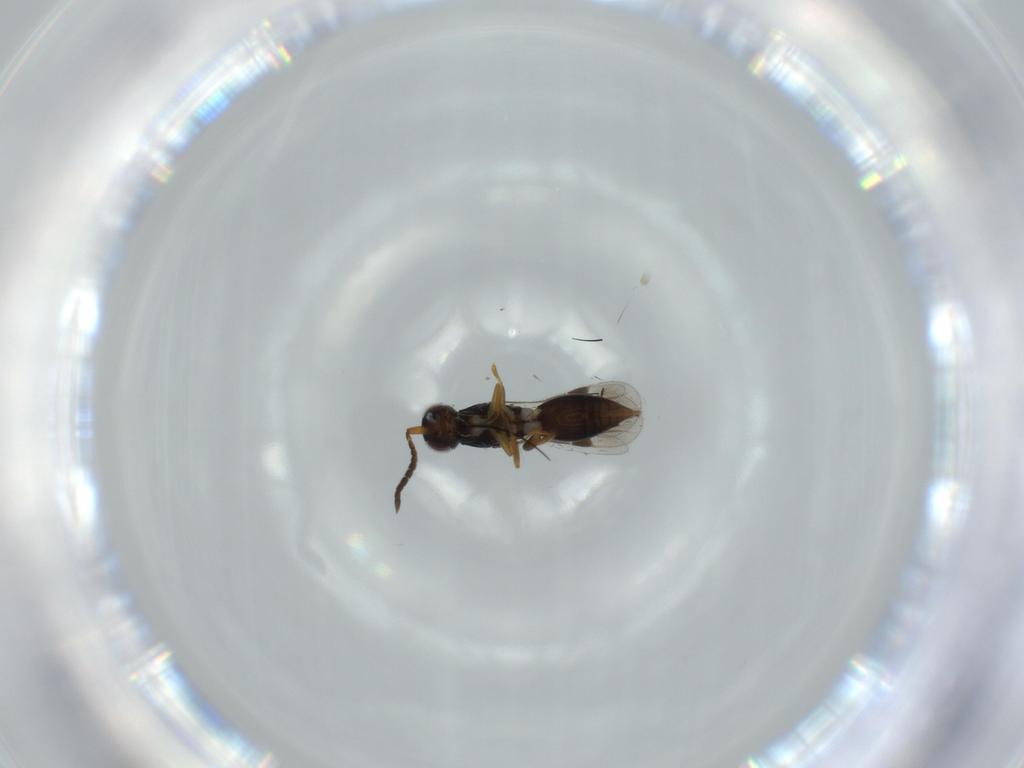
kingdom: Animalia
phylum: Arthropoda
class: Insecta
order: Hymenoptera
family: Megaspilidae
